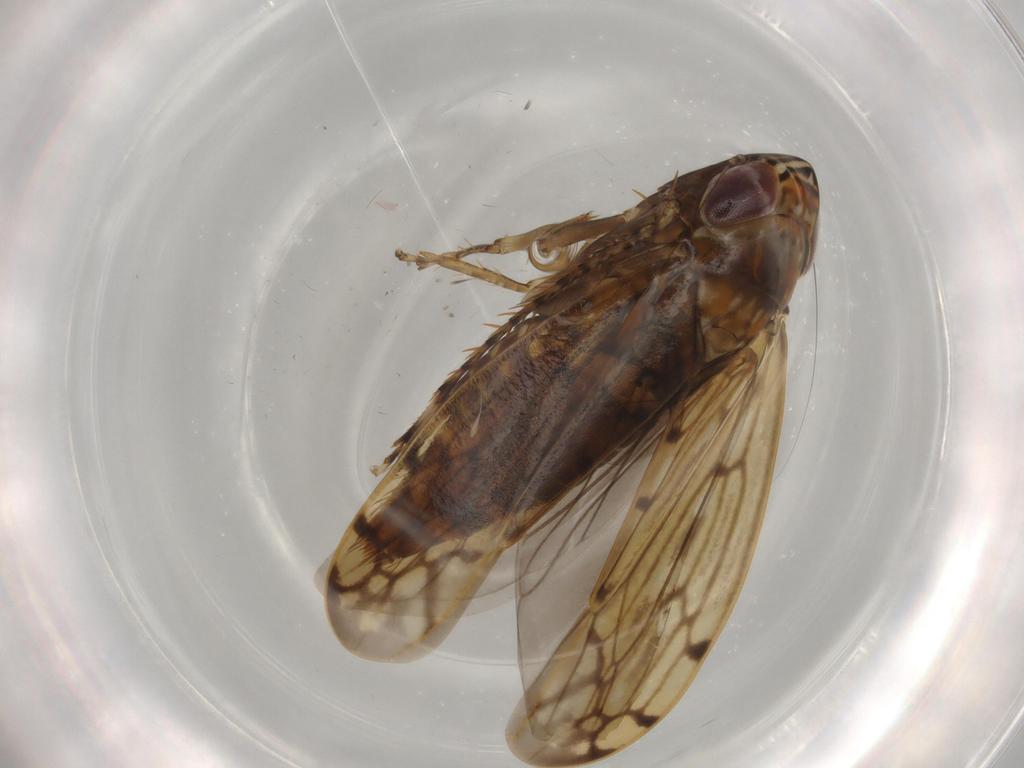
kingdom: Animalia
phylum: Arthropoda
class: Insecta
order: Hemiptera
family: Cicadellidae
